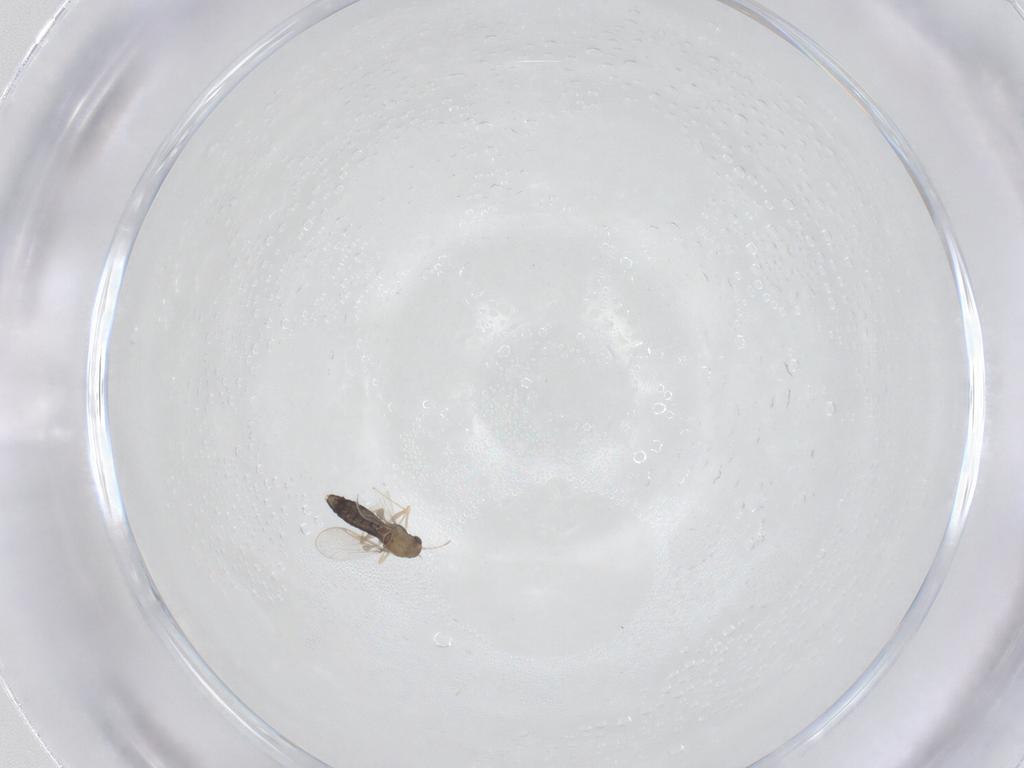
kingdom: Animalia
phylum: Arthropoda
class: Insecta
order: Diptera
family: Chironomidae
